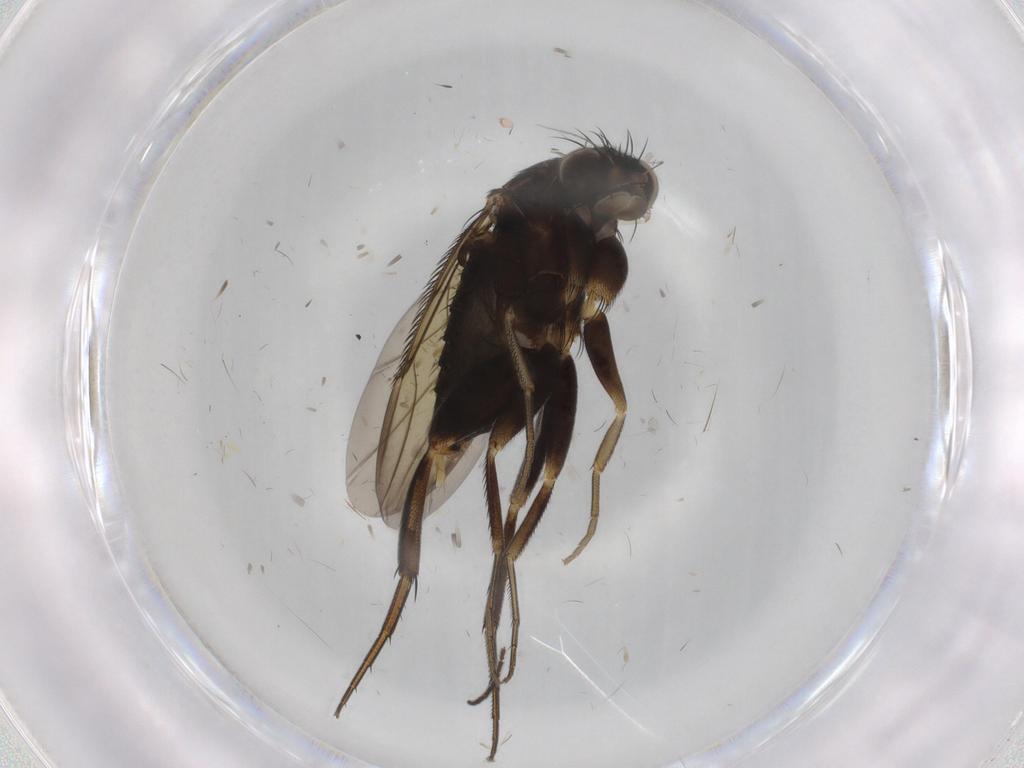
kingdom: Animalia
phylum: Arthropoda
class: Insecta
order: Diptera
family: Phoridae
